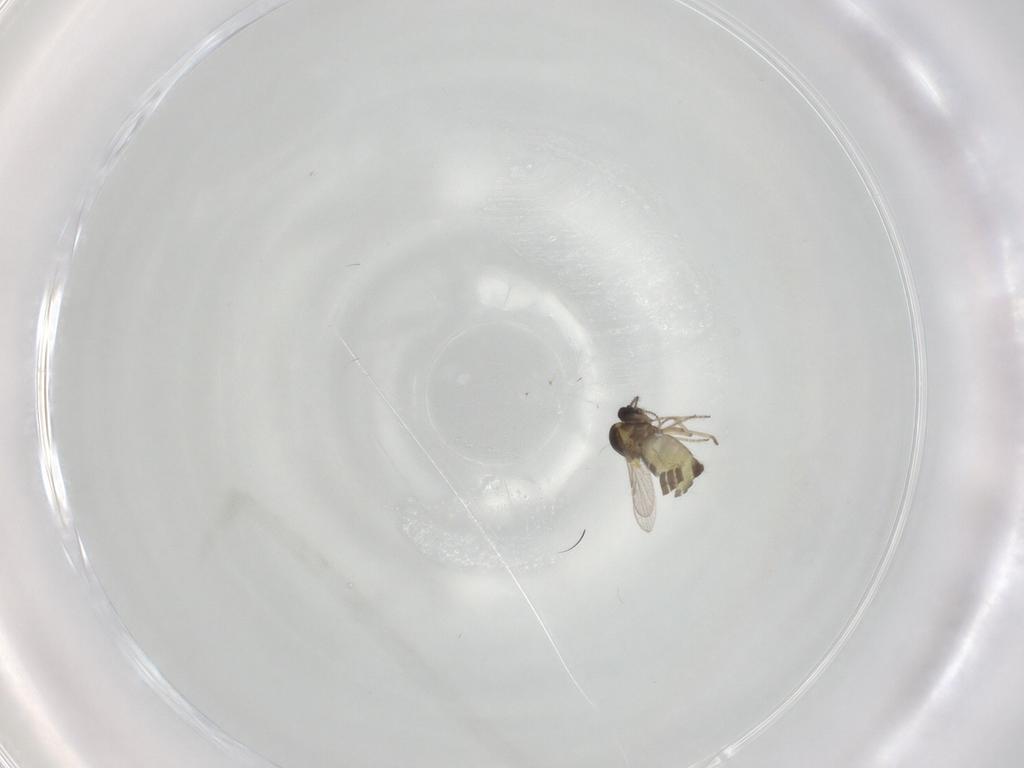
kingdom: Animalia
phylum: Arthropoda
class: Insecta
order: Diptera
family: Ceratopogonidae
